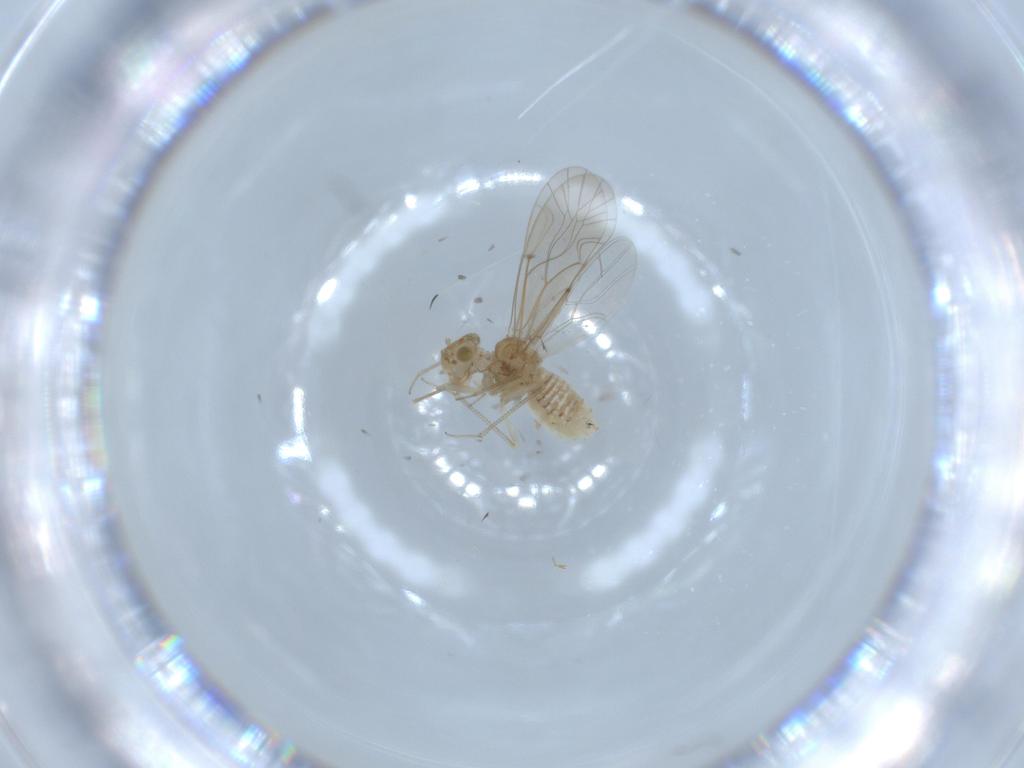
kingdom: Animalia
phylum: Arthropoda
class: Insecta
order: Psocodea
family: Lachesillidae
